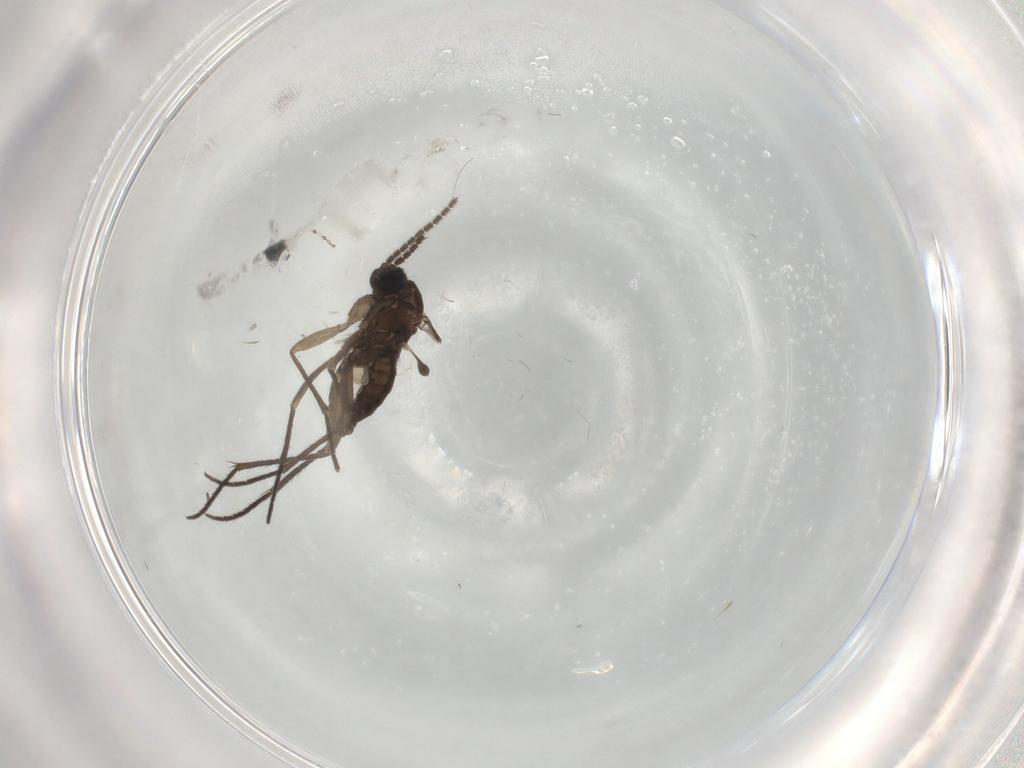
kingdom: Animalia
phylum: Arthropoda
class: Insecta
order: Diptera
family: Sciaridae
